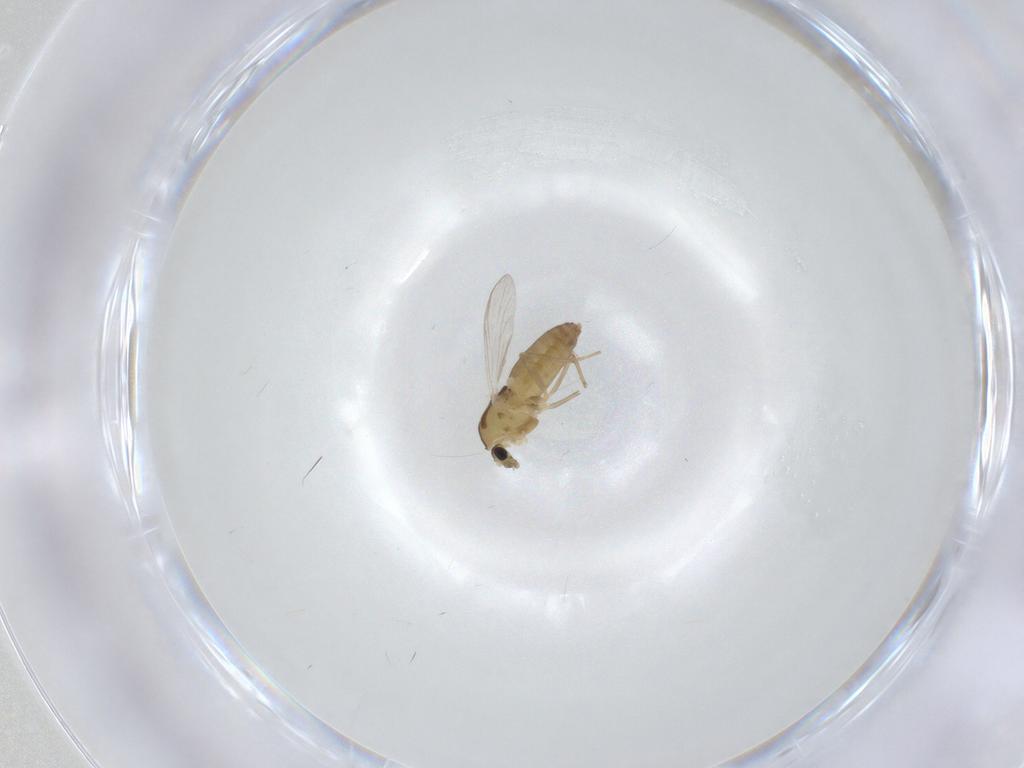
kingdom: Animalia
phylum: Arthropoda
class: Insecta
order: Diptera
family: Chironomidae
